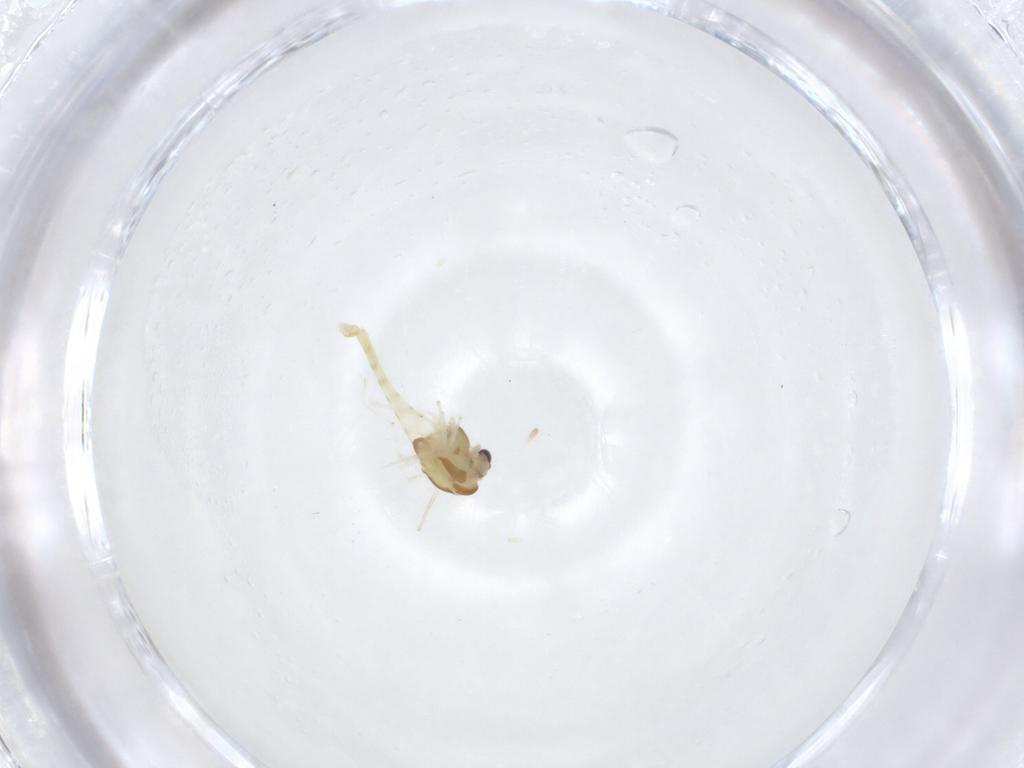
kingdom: Animalia
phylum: Arthropoda
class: Insecta
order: Diptera
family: Chironomidae
